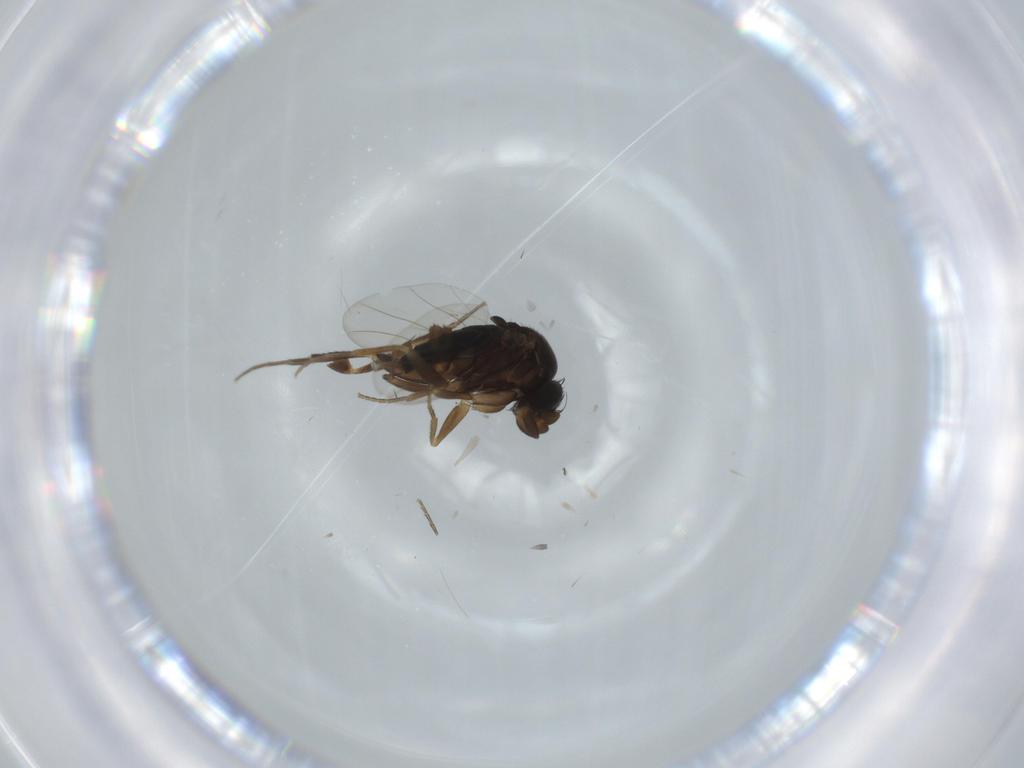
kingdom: Animalia
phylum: Arthropoda
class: Insecta
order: Diptera
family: Phoridae
